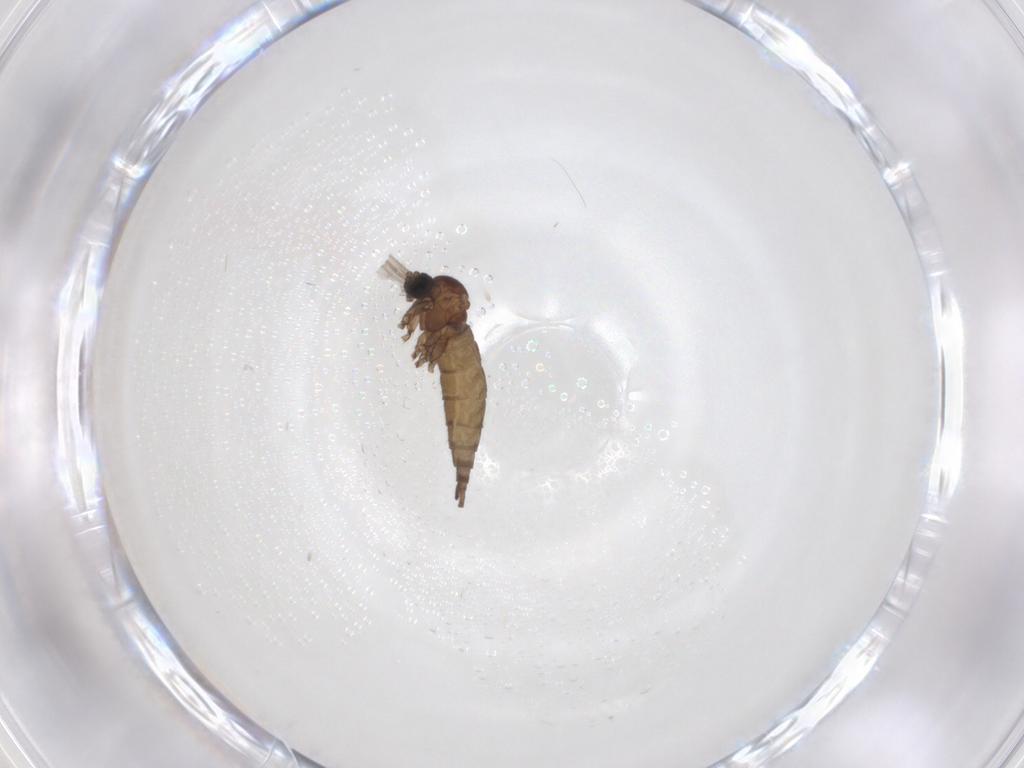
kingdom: Animalia
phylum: Arthropoda
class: Insecta
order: Diptera
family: Sciaridae
